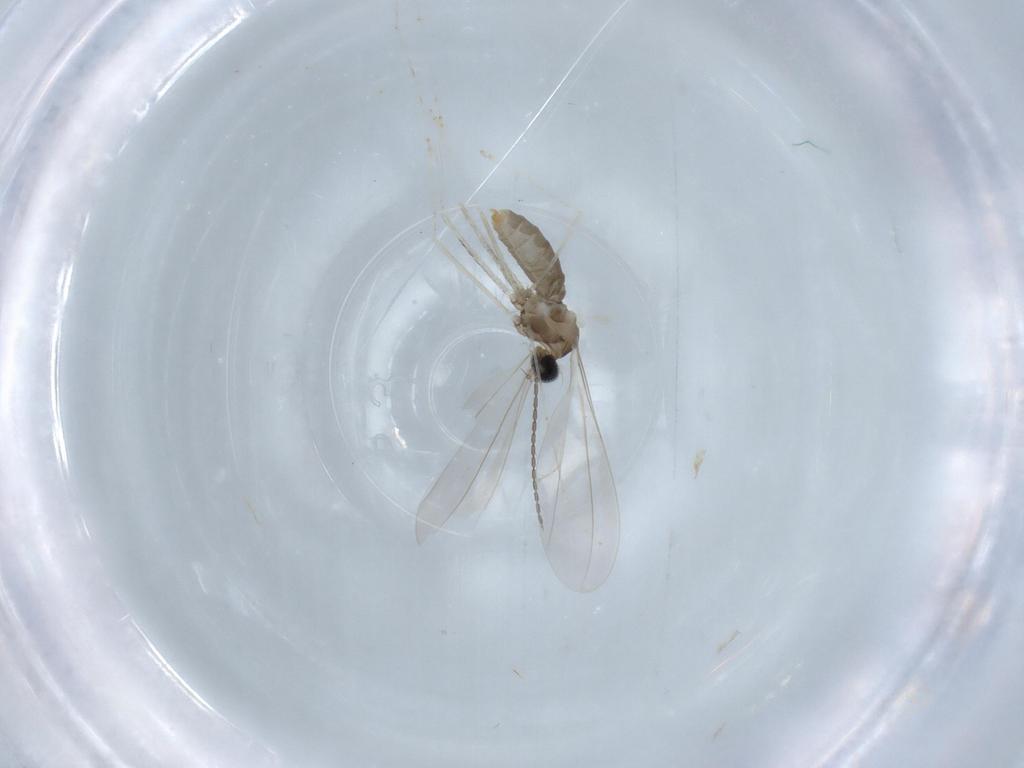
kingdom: Animalia
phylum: Arthropoda
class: Insecta
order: Diptera
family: Cecidomyiidae
